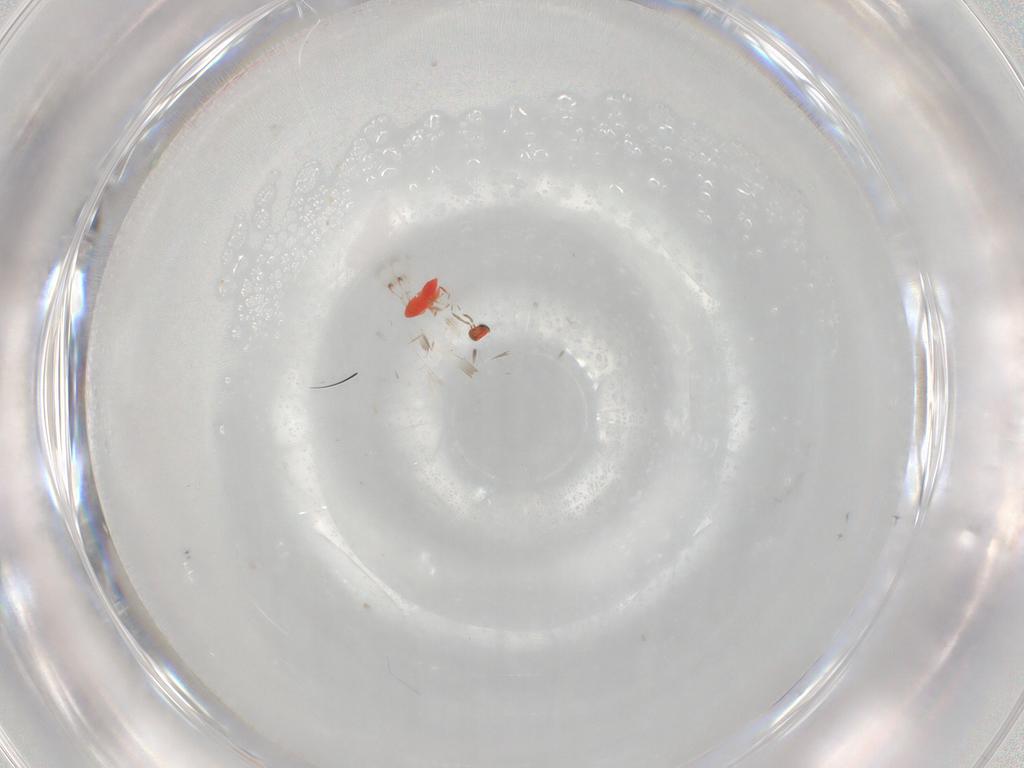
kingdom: Animalia
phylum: Arthropoda
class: Insecta
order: Hymenoptera
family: Trichogrammatidae
